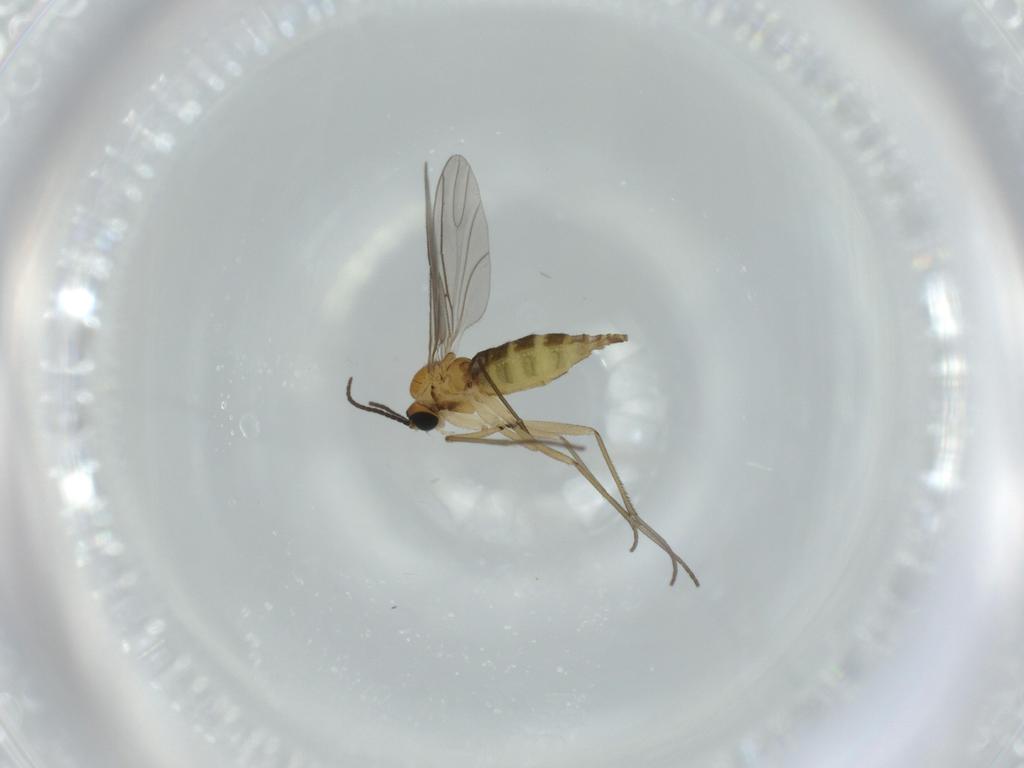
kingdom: Animalia
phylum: Arthropoda
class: Insecta
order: Diptera
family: Sciaridae
